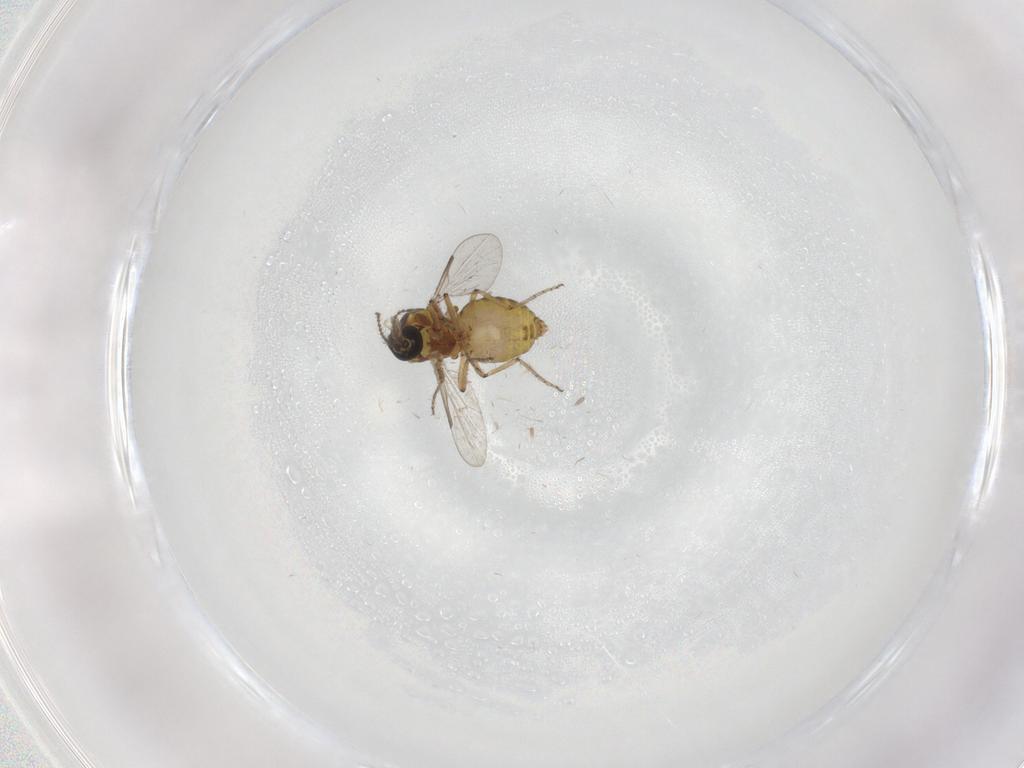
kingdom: Animalia
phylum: Arthropoda
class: Insecta
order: Diptera
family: Ceratopogonidae
